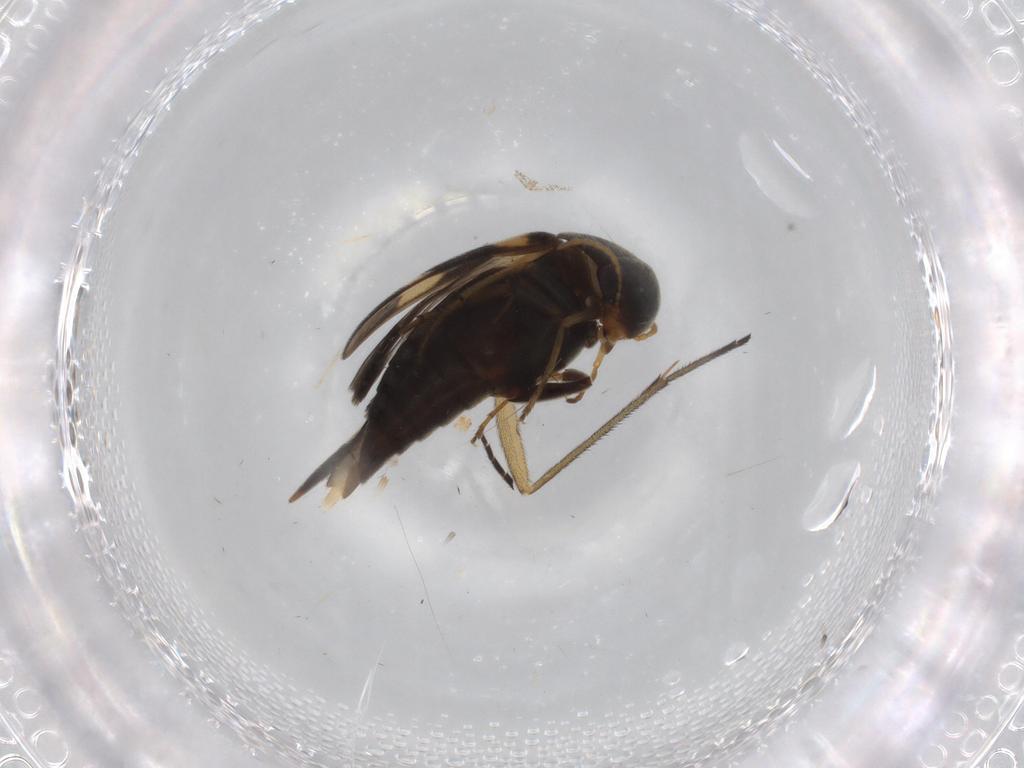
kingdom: Animalia
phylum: Arthropoda
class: Insecta
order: Coleoptera
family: Mordellidae
